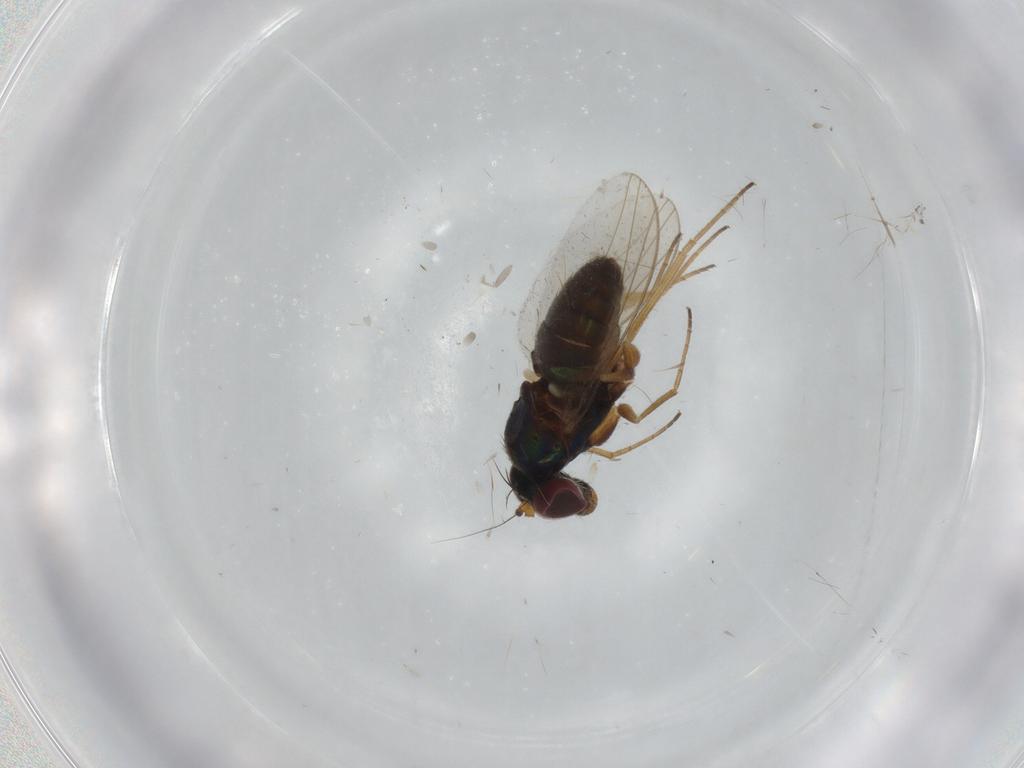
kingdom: Animalia
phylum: Arthropoda
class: Insecta
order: Diptera
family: Dolichopodidae
